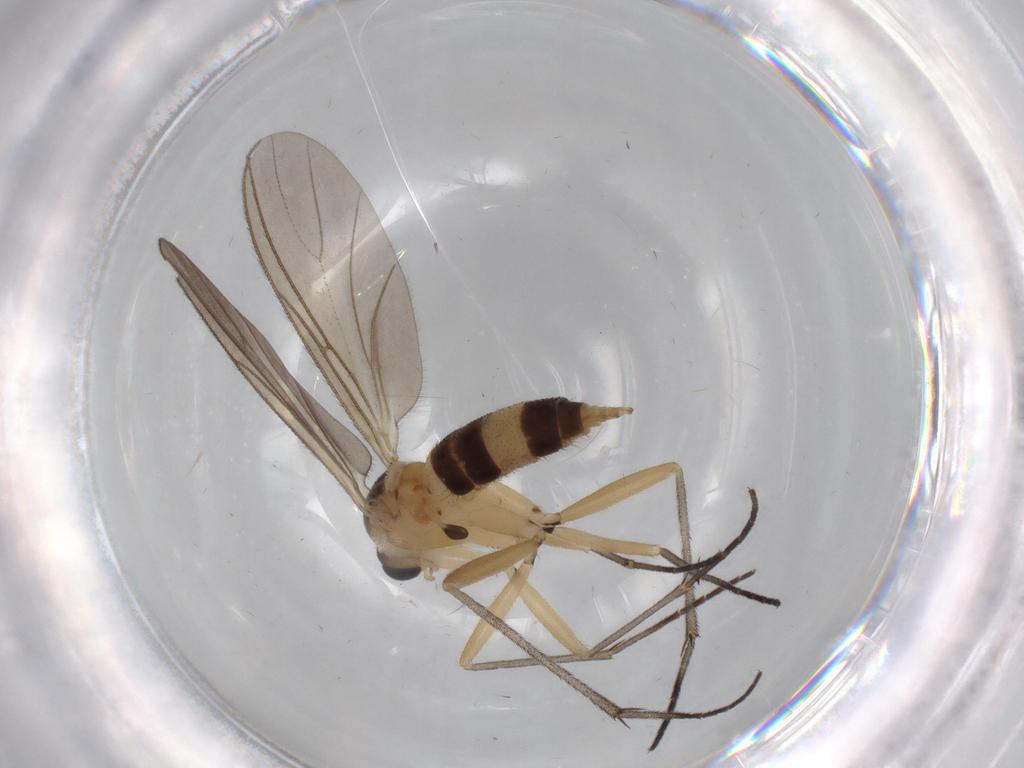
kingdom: Animalia
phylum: Arthropoda
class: Insecta
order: Diptera
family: Sciaridae
